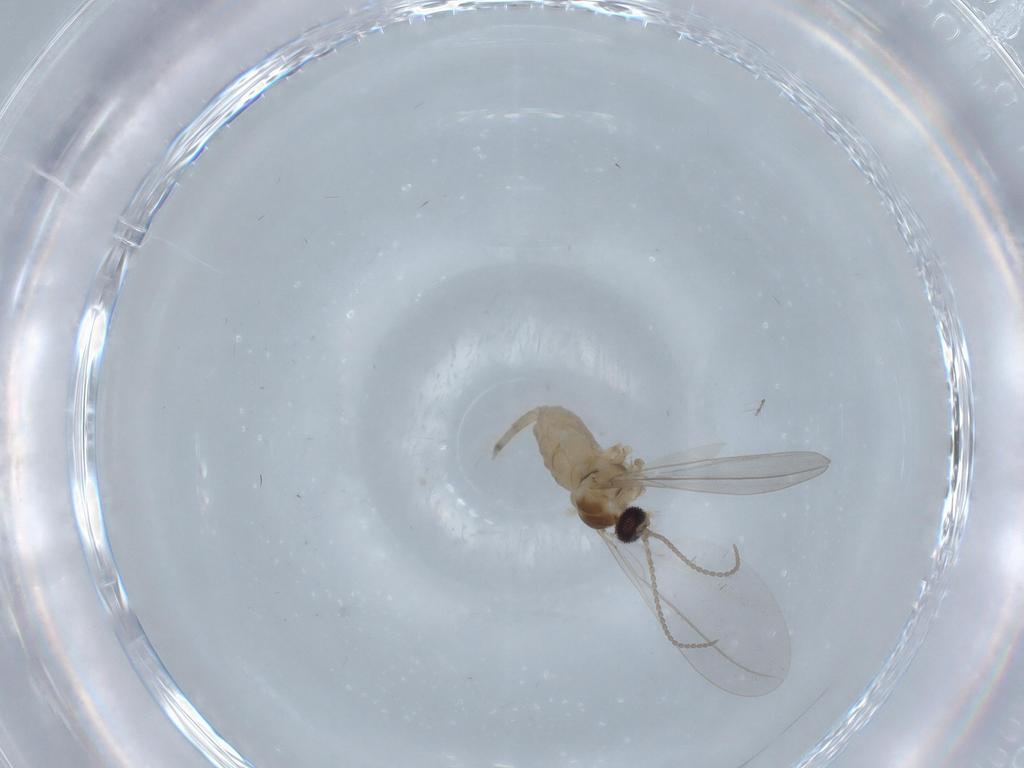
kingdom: Animalia
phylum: Arthropoda
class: Insecta
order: Diptera
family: Cecidomyiidae
